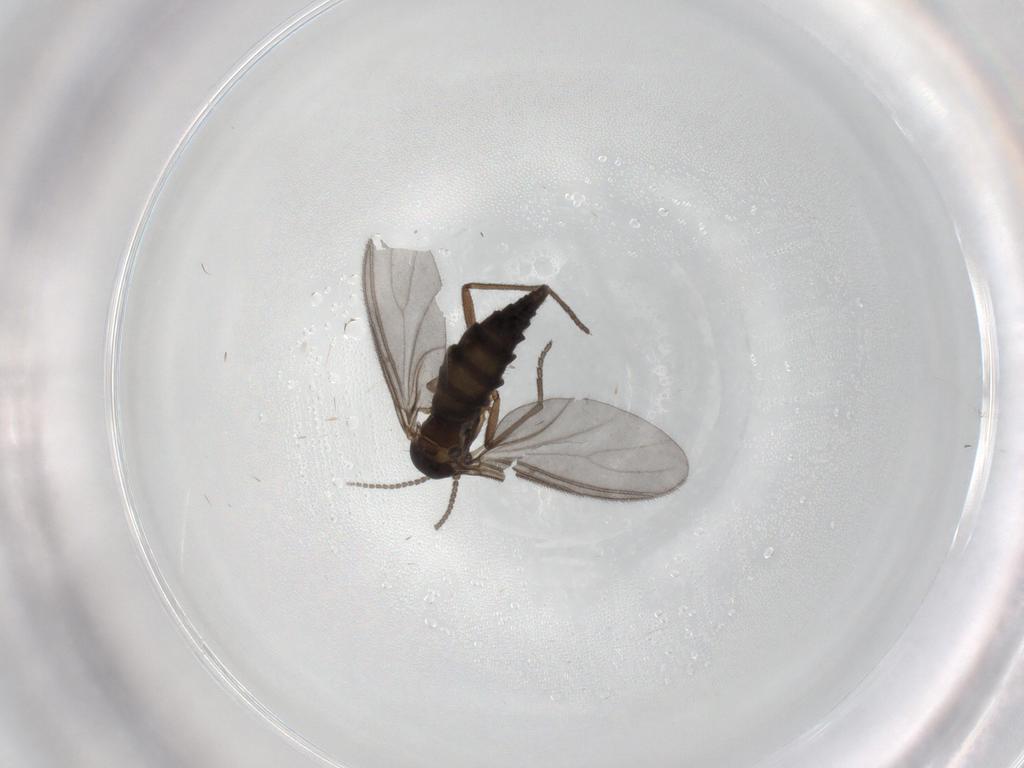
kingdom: Animalia
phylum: Arthropoda
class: Insecta
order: Diptera
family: Sciaridae
